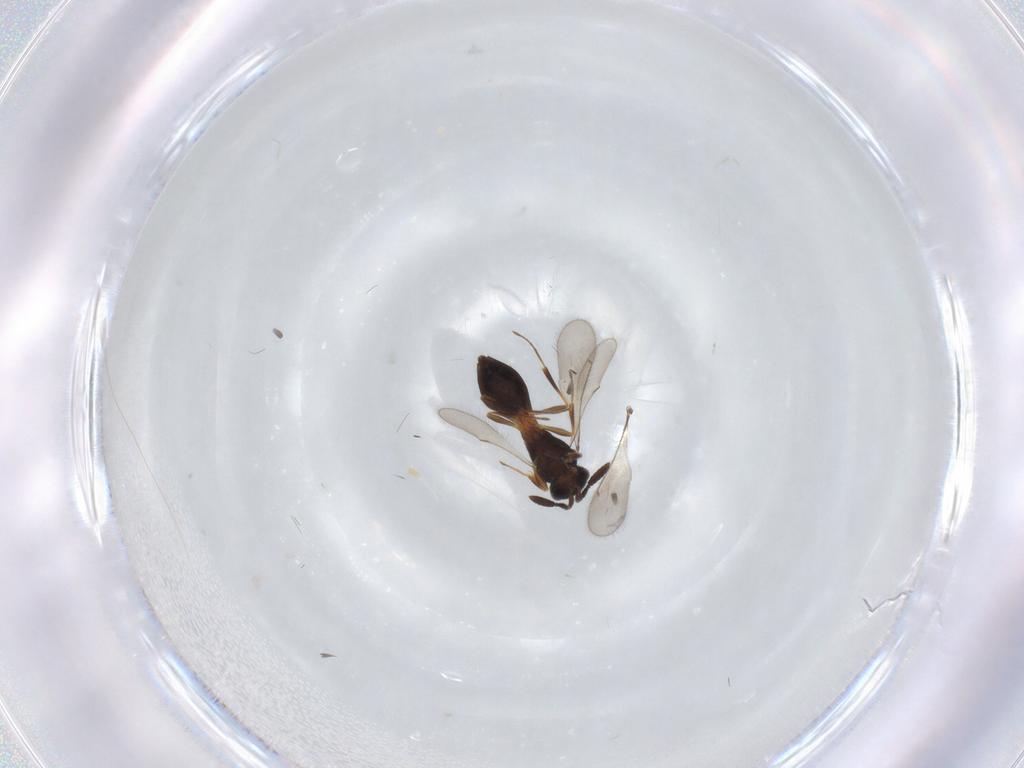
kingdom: Animalia
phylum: Arthropoda
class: Insecta
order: Hymenoptera
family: Scelionidae
